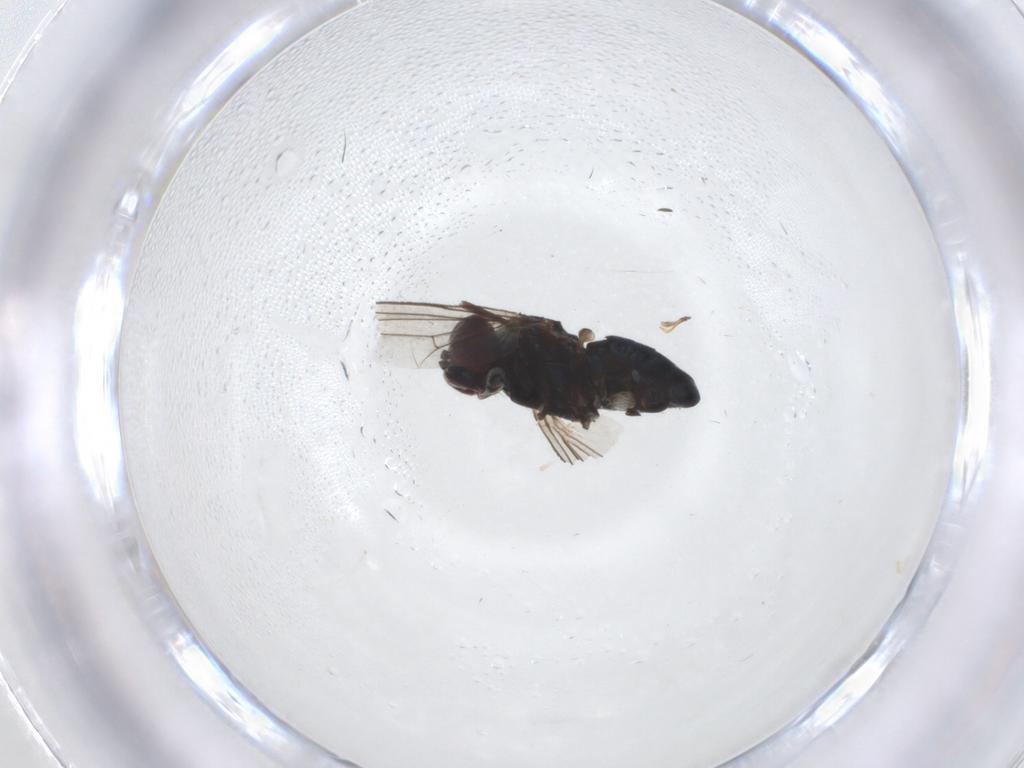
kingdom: Animalia
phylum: Arthropoda
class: Insecta
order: Diptera
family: Dolichopodidae
